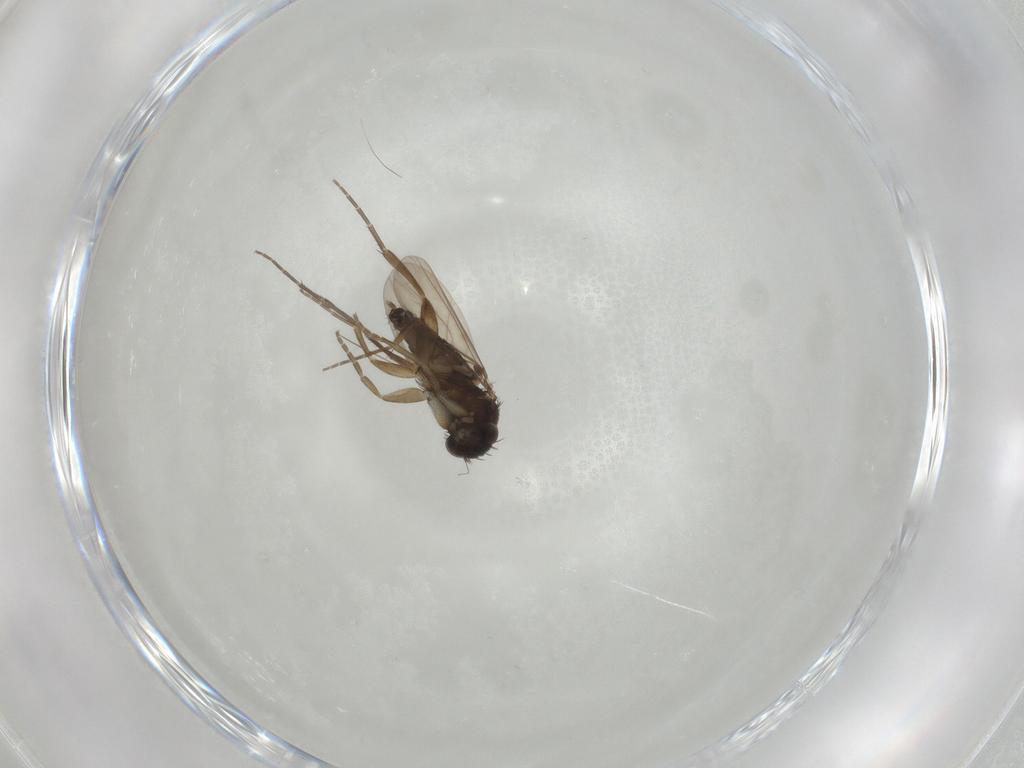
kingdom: Animalia
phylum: Arthropoda
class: Insecta
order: Diptera
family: Phoridae
